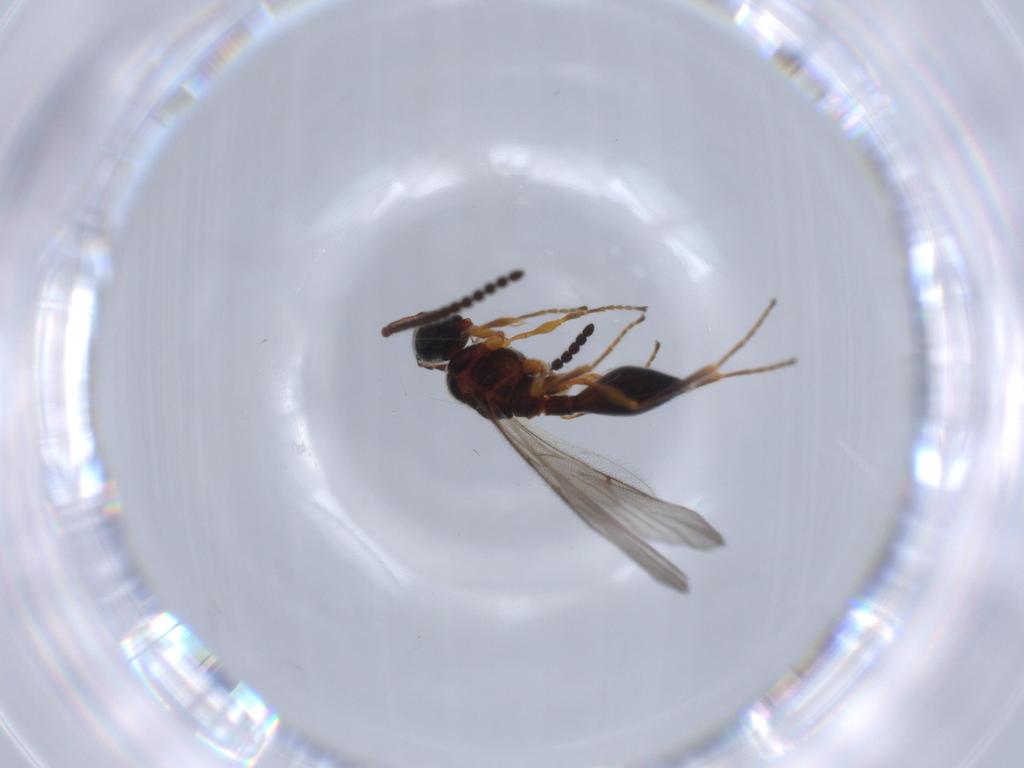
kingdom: Animalia
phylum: Arthropoda
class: Insecta
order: Hymenoptera
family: Diapriidae
